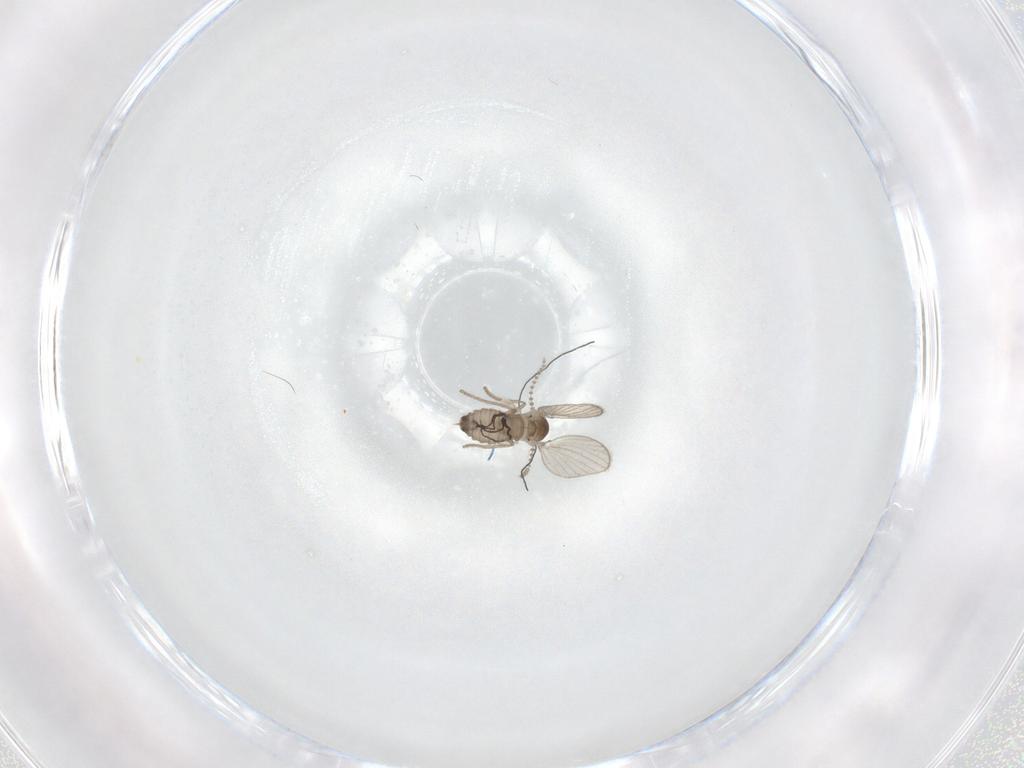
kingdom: Animalia
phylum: Arthropoda
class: Insecta
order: Diptera
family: Psychodidae
